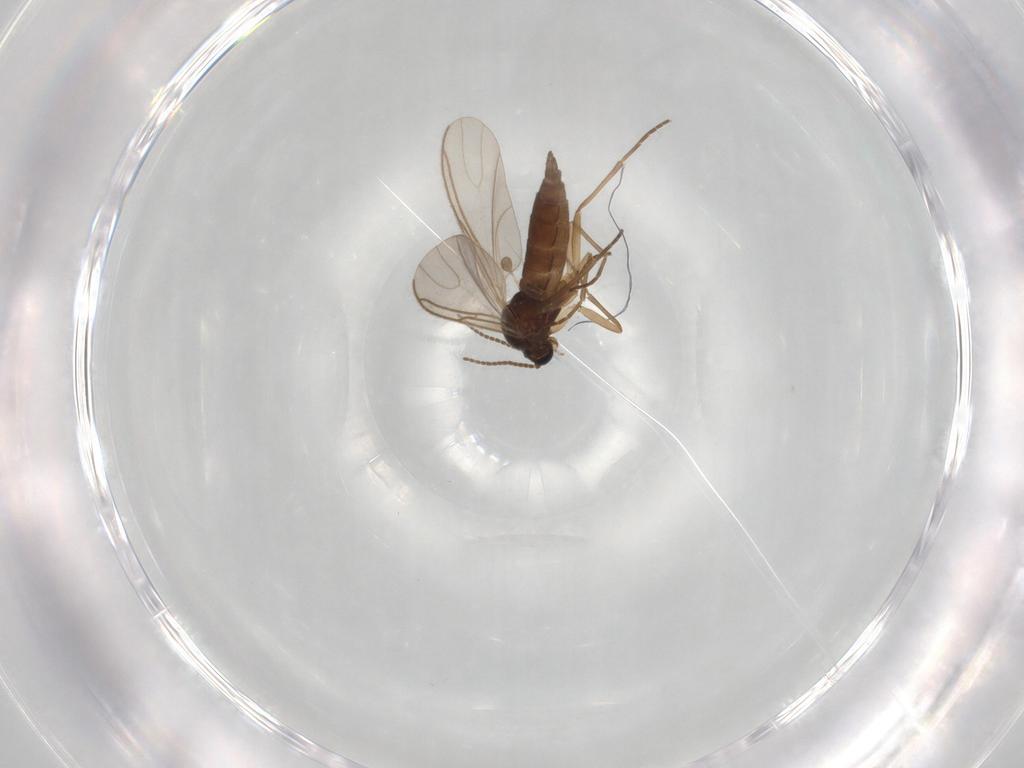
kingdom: Animalia
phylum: Arthropoda
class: Insecta
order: Diptera
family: Sciaridae
